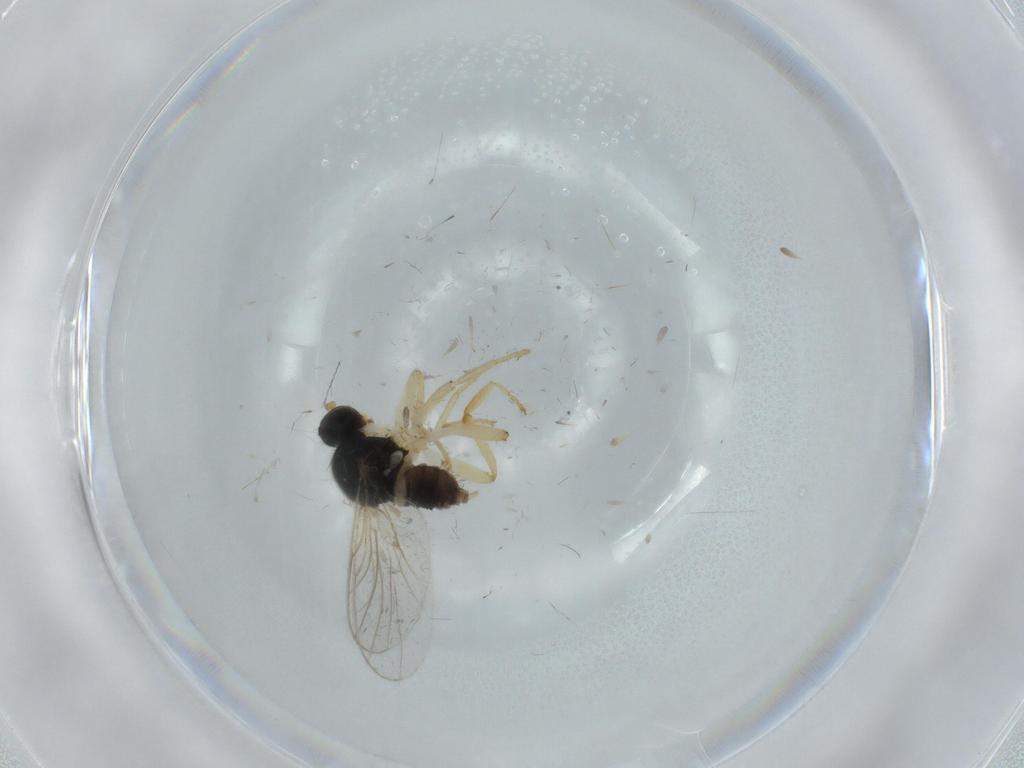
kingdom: Animalia
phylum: Arthropoda
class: Insecta
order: Diptera
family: Hybotidae
